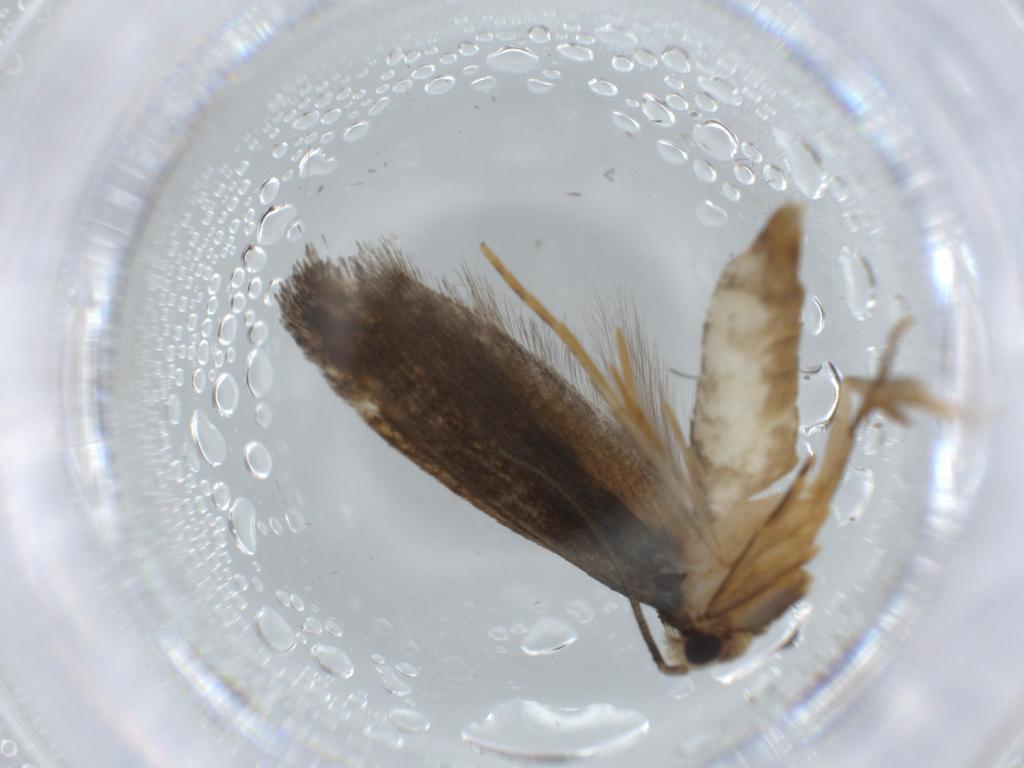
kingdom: Animalia
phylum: Arthropoda
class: Insecta
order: Lepidoptera
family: Tineidae
